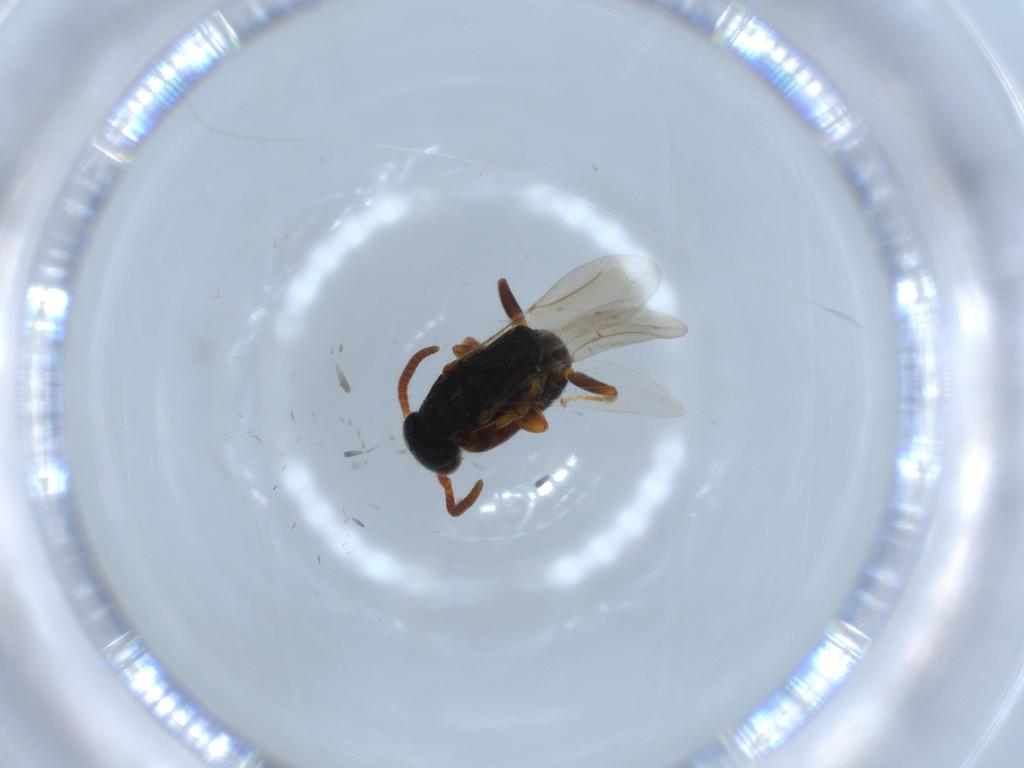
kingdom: Animalia
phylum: Arthropoda
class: Insecta
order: Hymenoptera
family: Bethylidae
